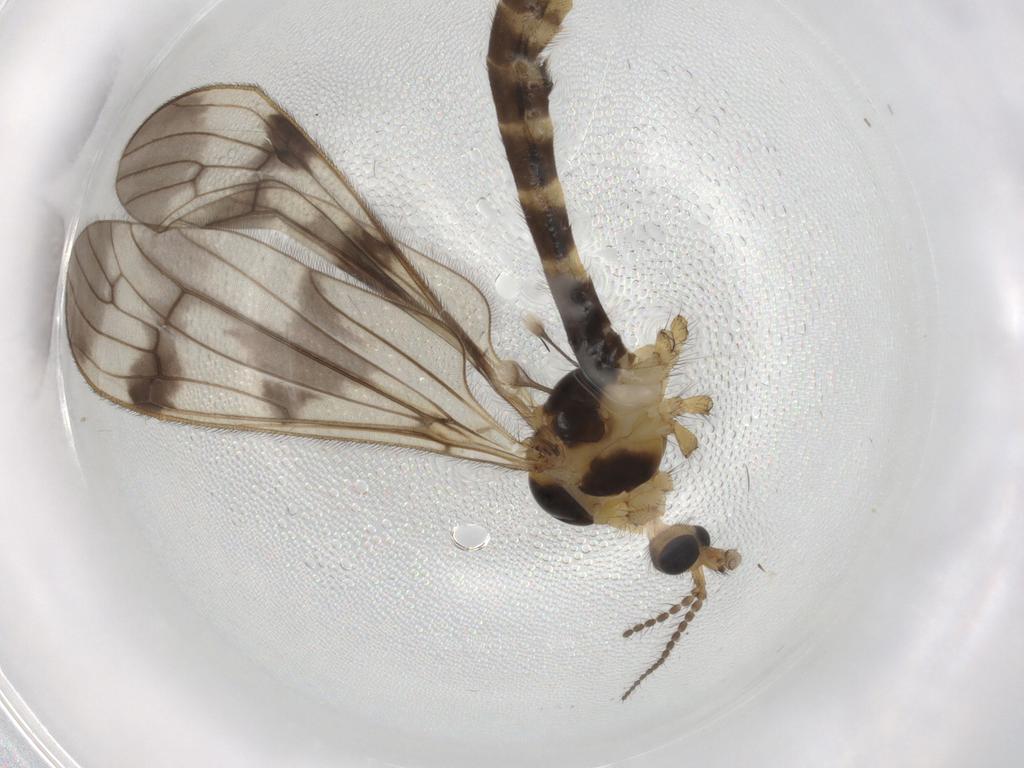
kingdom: Animalia
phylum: Arthropoda
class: Insecta
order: Diptera
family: Limoniidae
